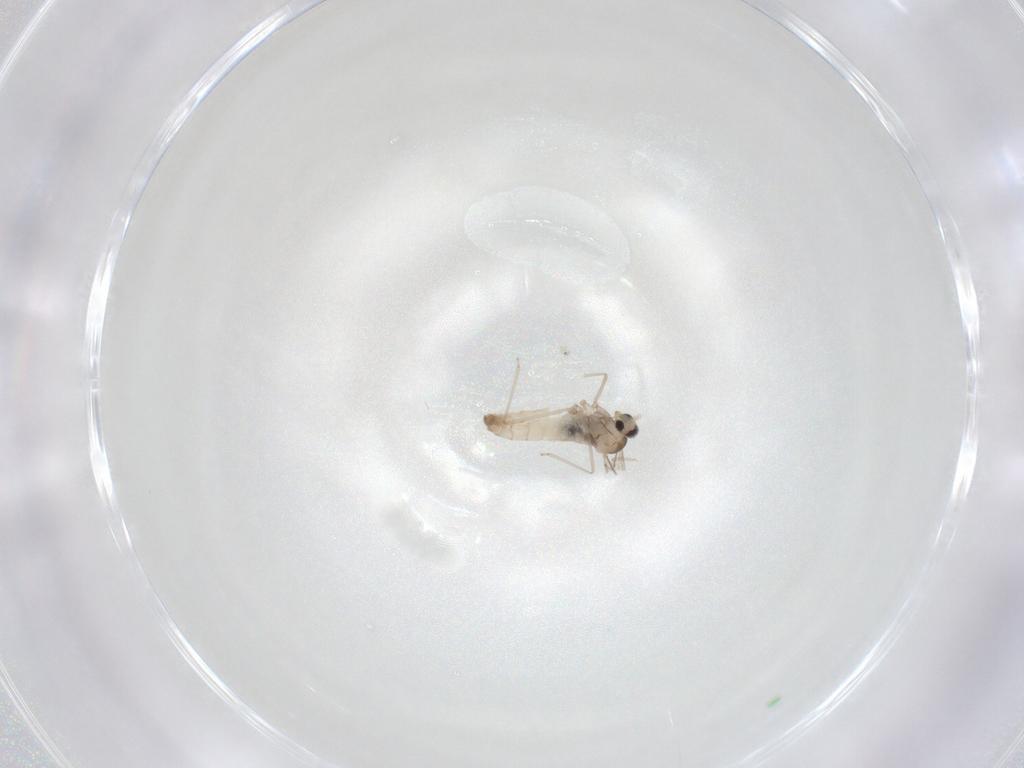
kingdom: Animalia
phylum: Arthropoda
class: Insecta
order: Diptera
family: Cecidomyiidae
